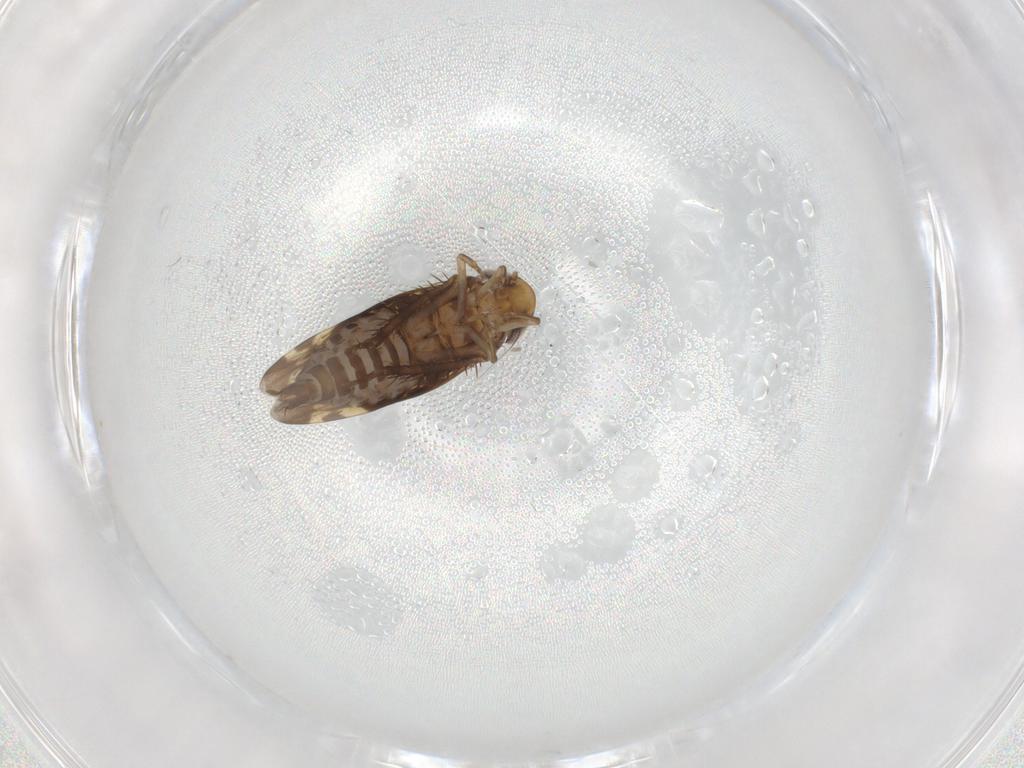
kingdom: Animalia
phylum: Arthropoda
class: Insecta
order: Hemiptera
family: Cicadellidae
